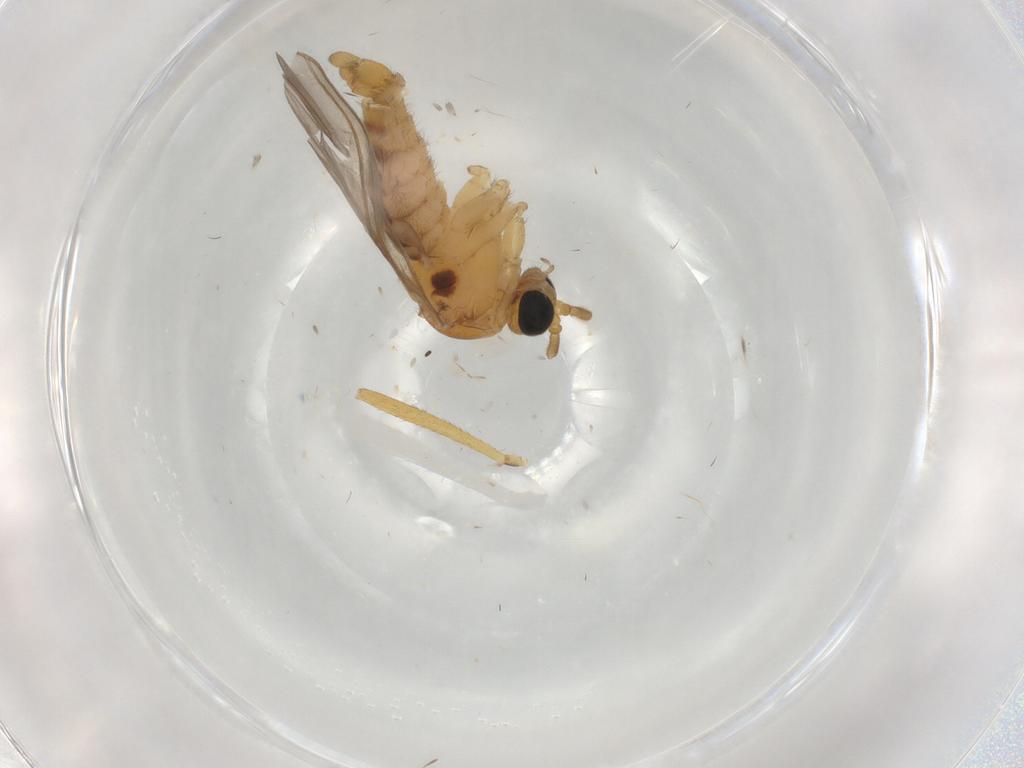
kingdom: Animalia
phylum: Arthropoda
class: Insecta
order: Diptera
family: Sciaridae
